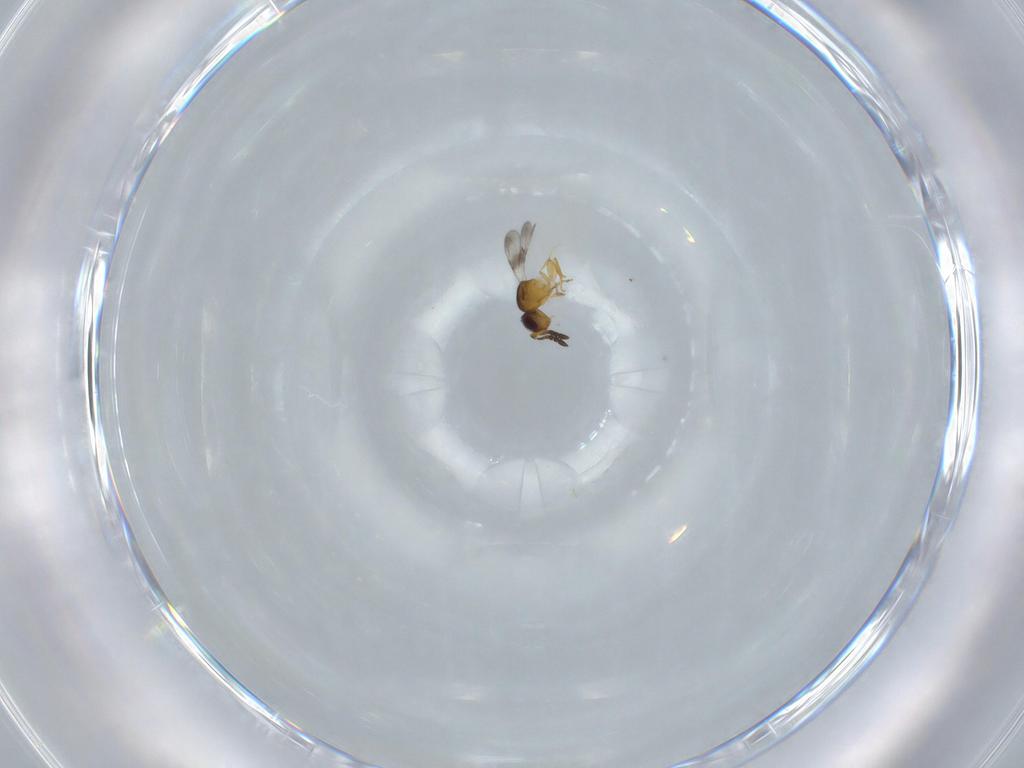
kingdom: Animalia
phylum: Arthropoda
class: Insecta
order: Hymenoptera
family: Ceraphronidae
